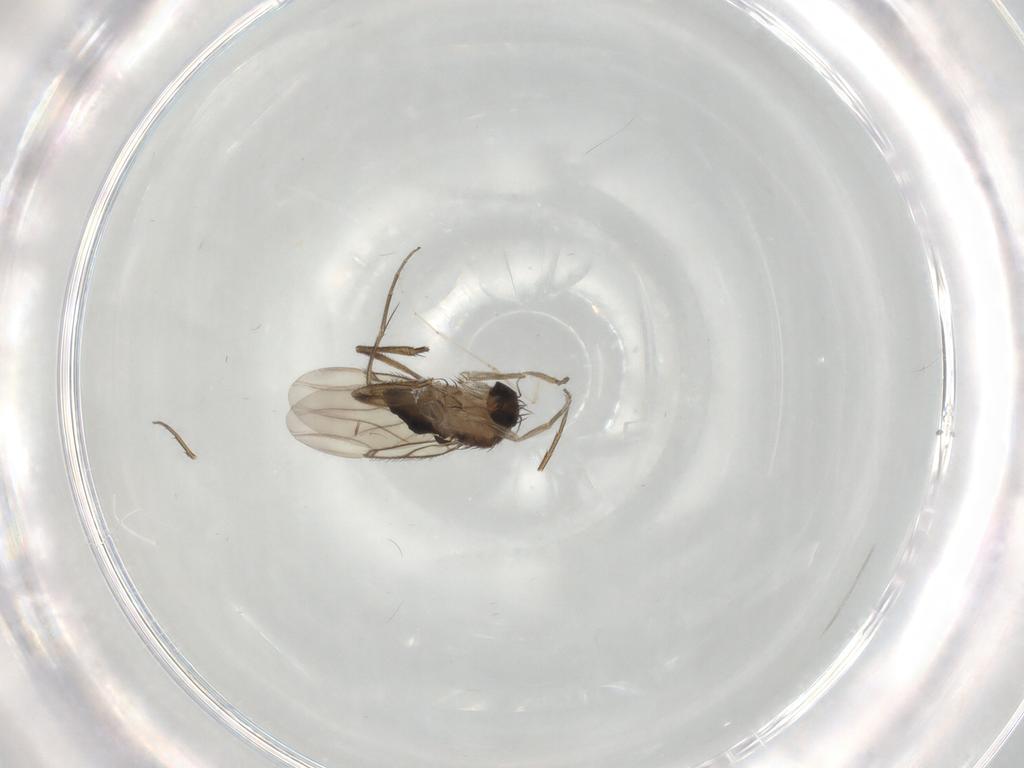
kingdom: Animalia
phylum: Arthropoda
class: Insecta
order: Diptera
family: Phoridae
